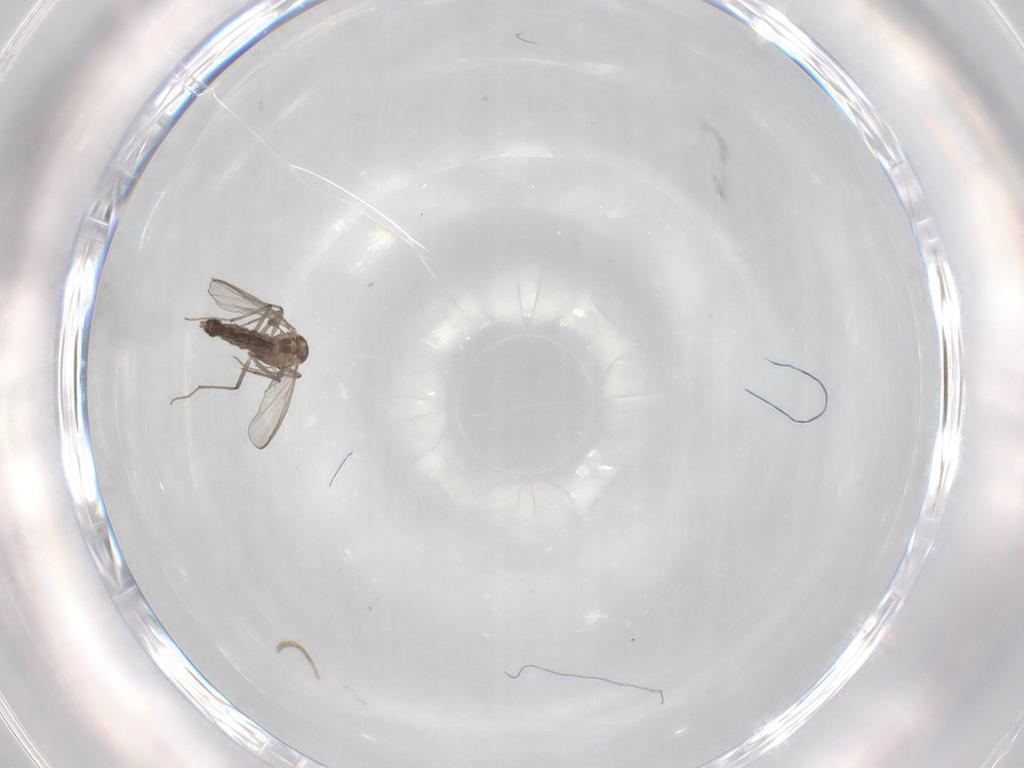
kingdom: Animalia
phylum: Arthropoda
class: Insecta
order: Diptera
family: Chironomidae
